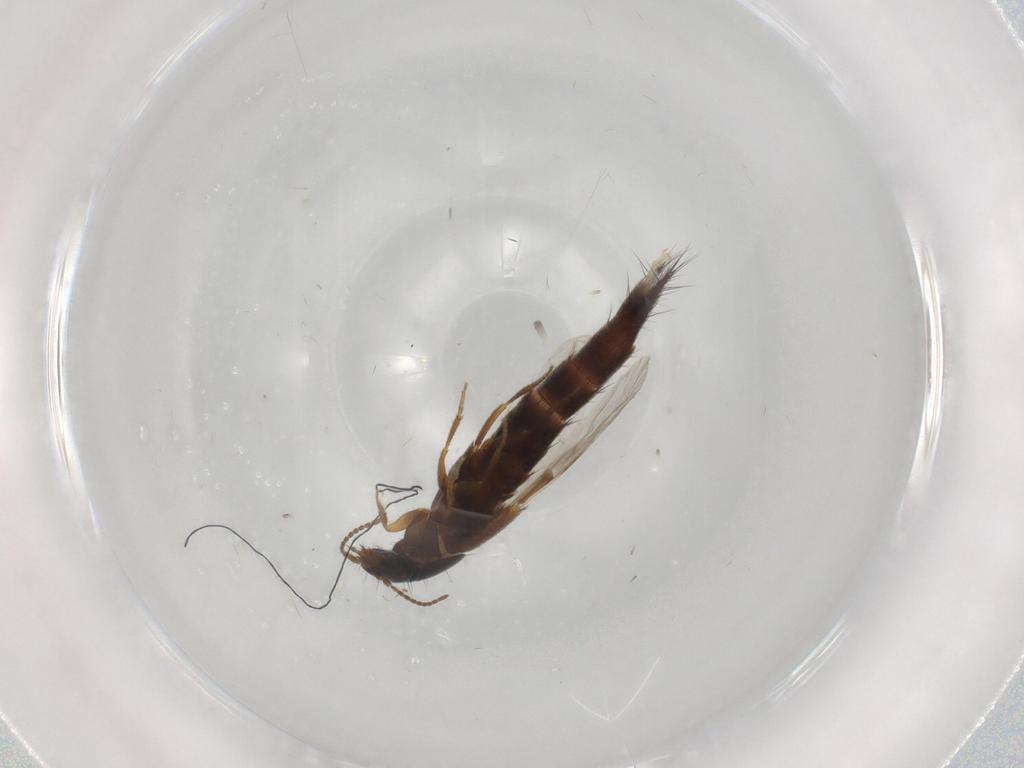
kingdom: Animalia
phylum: Arthropoda
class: Insecta
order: Coleoptera
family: Staphylinidae
